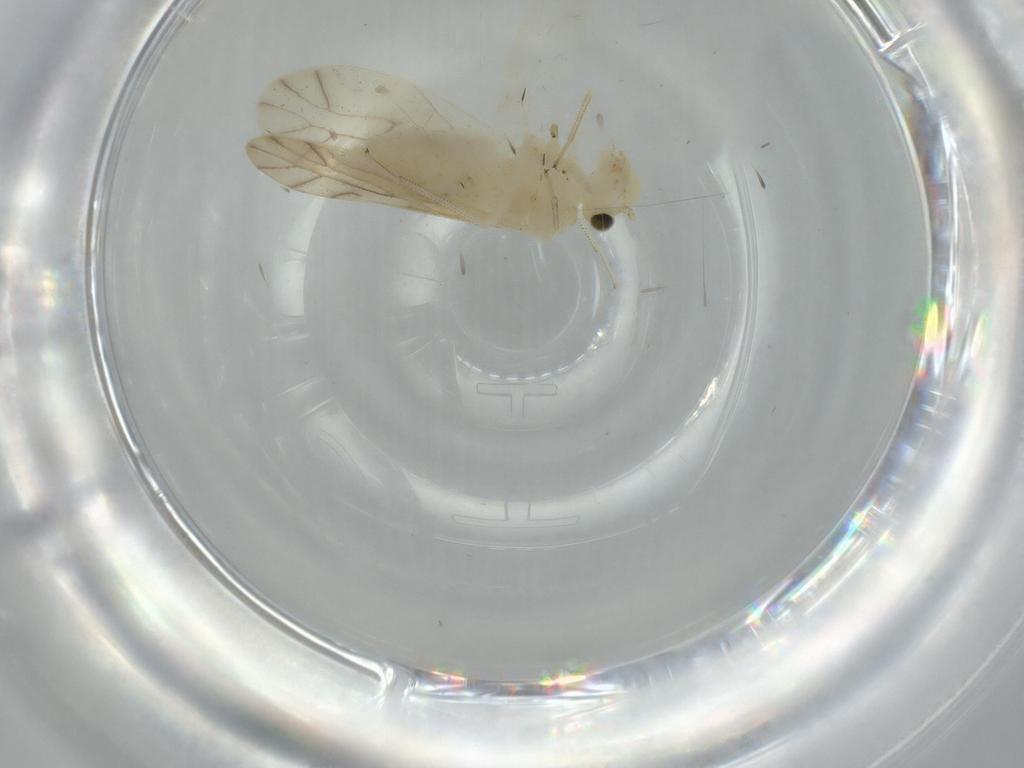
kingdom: Animalia
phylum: Arthropoda
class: Insecta
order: Psocodea
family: Caeciliusidae
